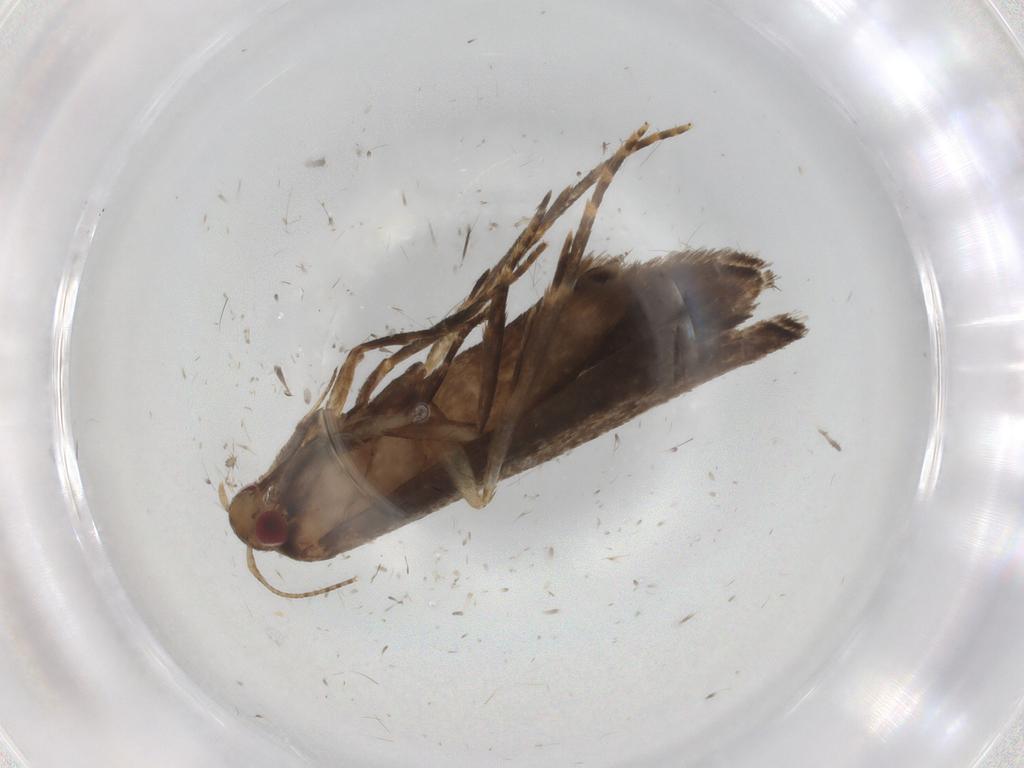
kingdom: Animalia
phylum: Arthropoda
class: Insecta
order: Lepidoptera
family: Gelechiidae
